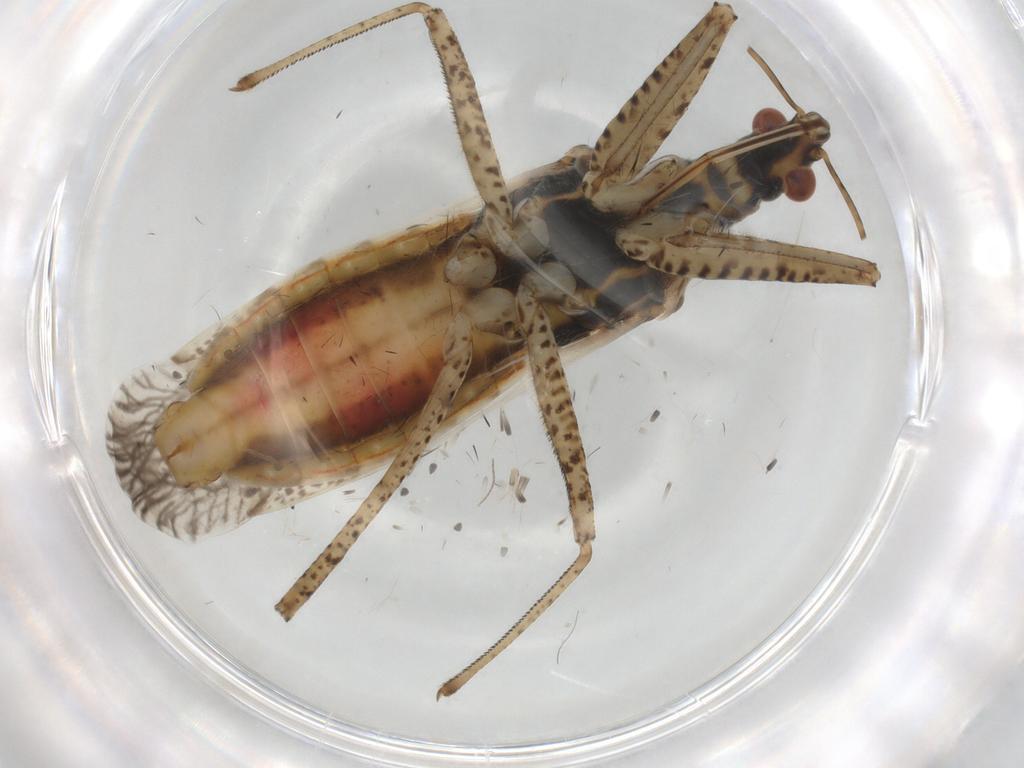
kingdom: Animalia
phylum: Arthropoda
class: Insecta
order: Hemiptera
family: Nabidae
